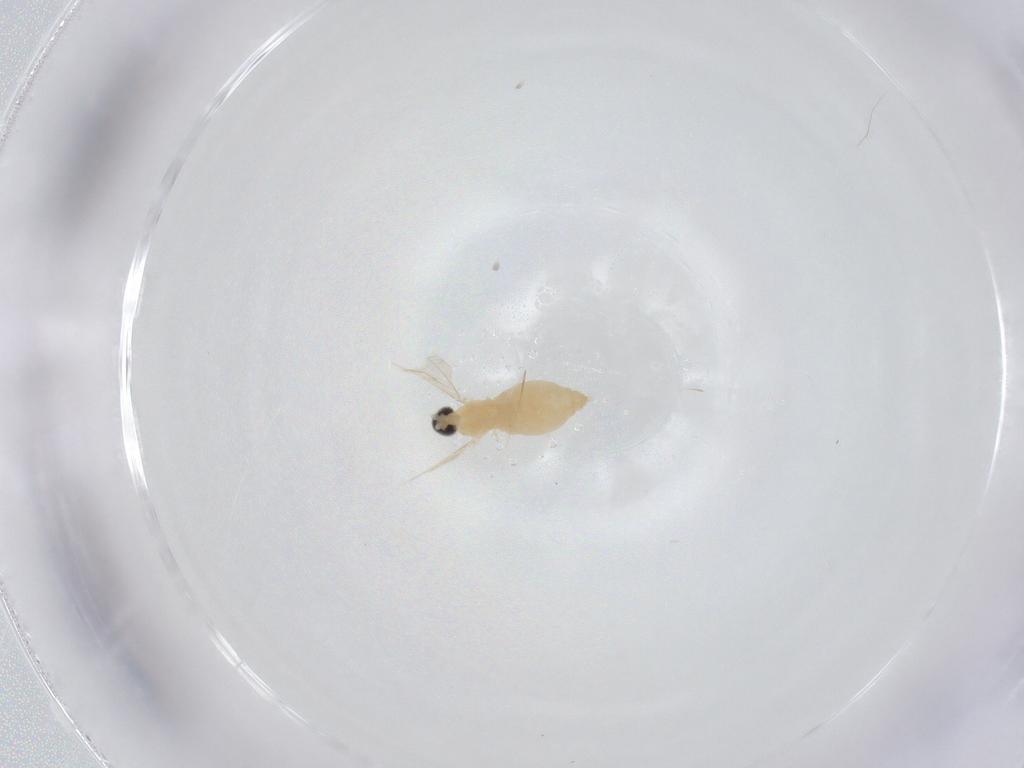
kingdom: Animalia
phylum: Arthropoda
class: Insecta
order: Diptera
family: Cecidomyiidae
